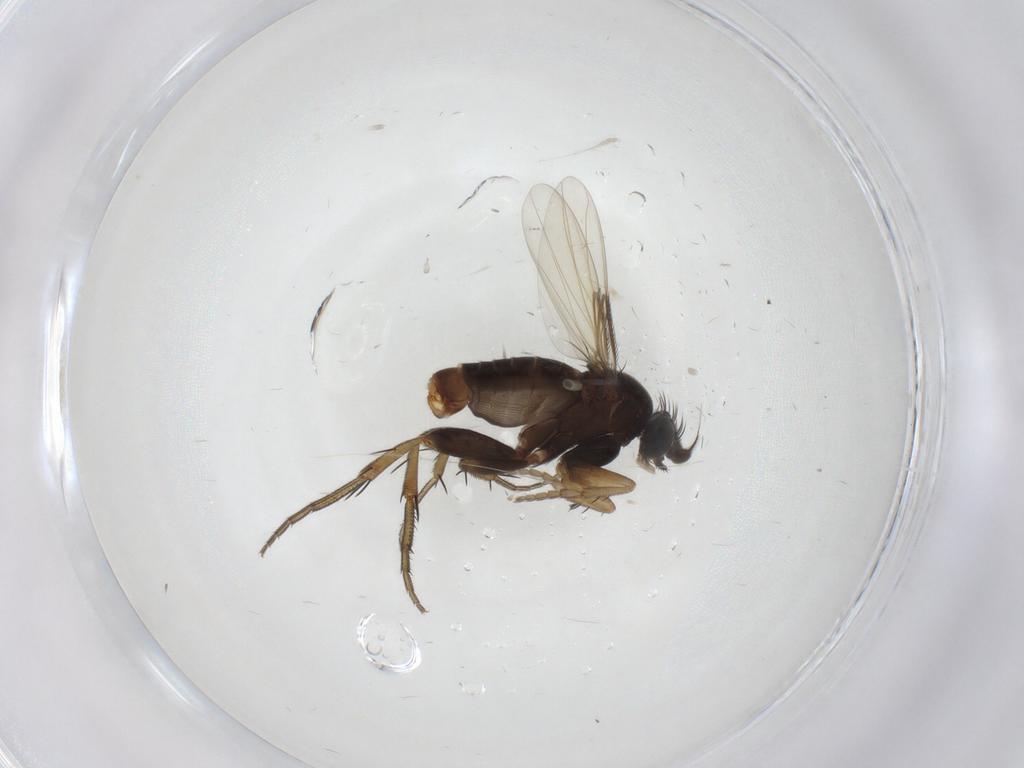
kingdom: Animalia
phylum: Arthropoda
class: Insecta
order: Diptera
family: Phoridae
